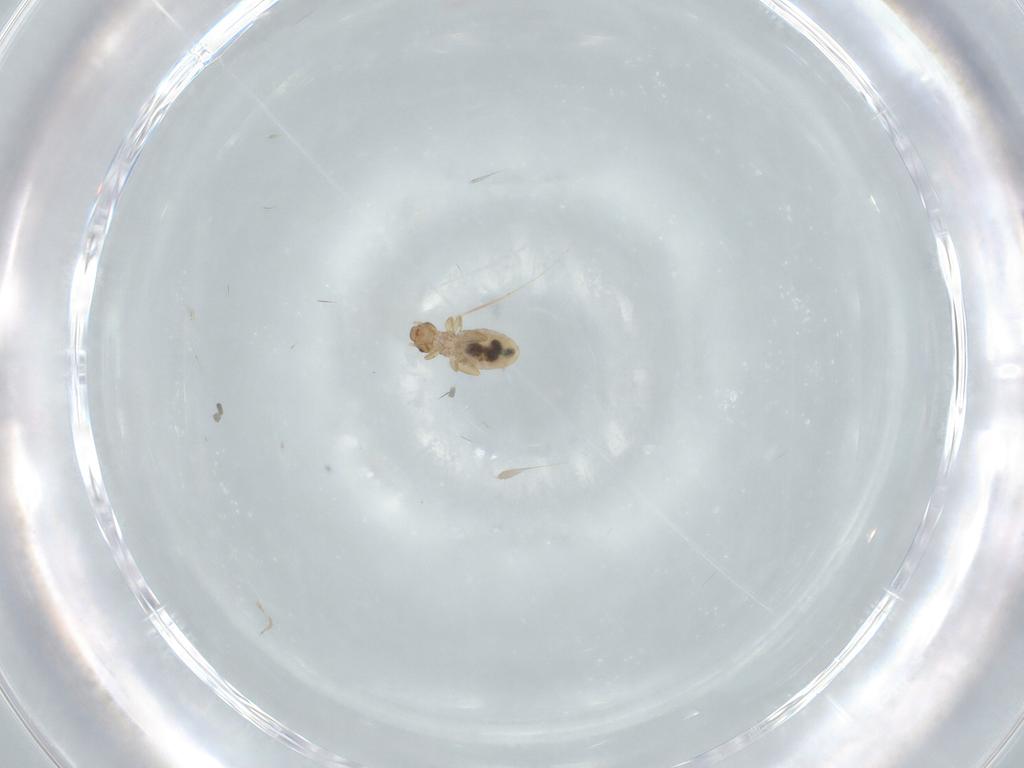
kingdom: Animalia
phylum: Arthropoda
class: Insecta
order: Psocodea
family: Liposcelididae
